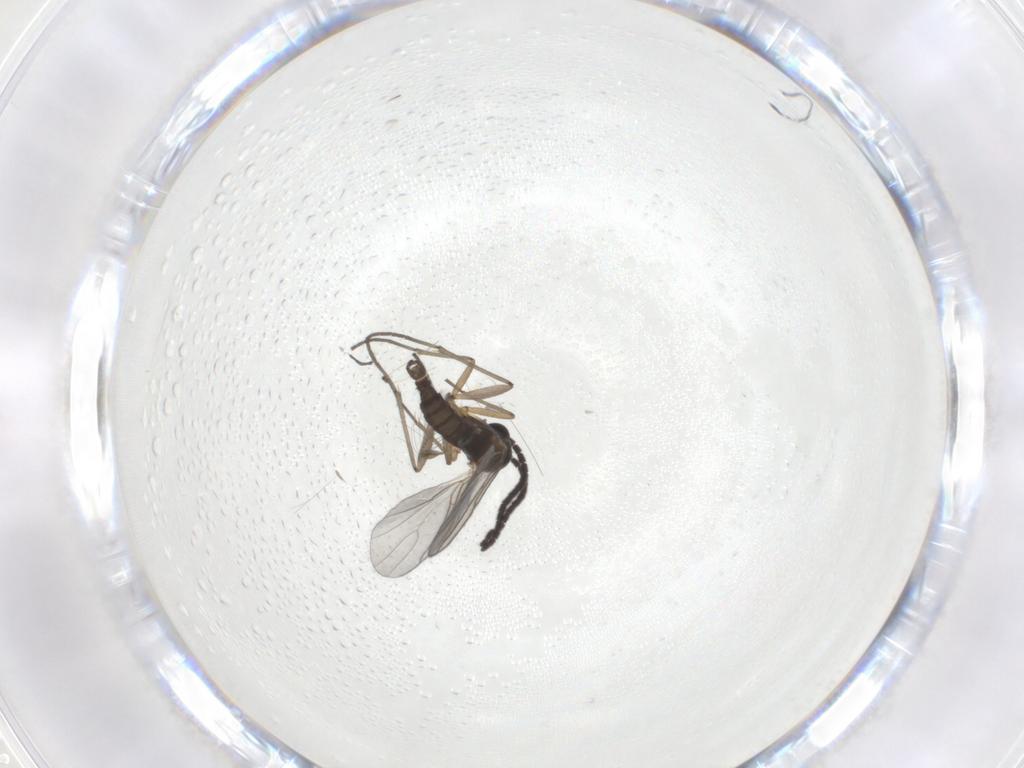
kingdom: Animalia
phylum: Arthropoda
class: Insecta
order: Diptera
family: Sciaridae
